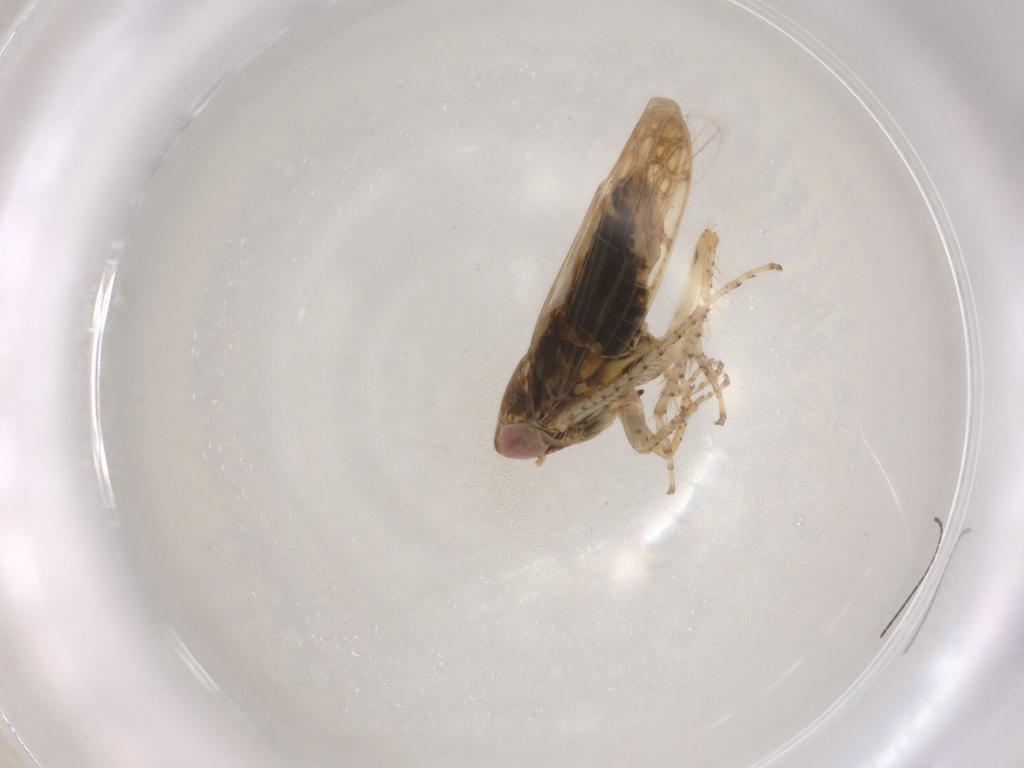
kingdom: Animalia
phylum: Arthropoda
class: Insecta
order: Hemiptera
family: Cicadellidae
